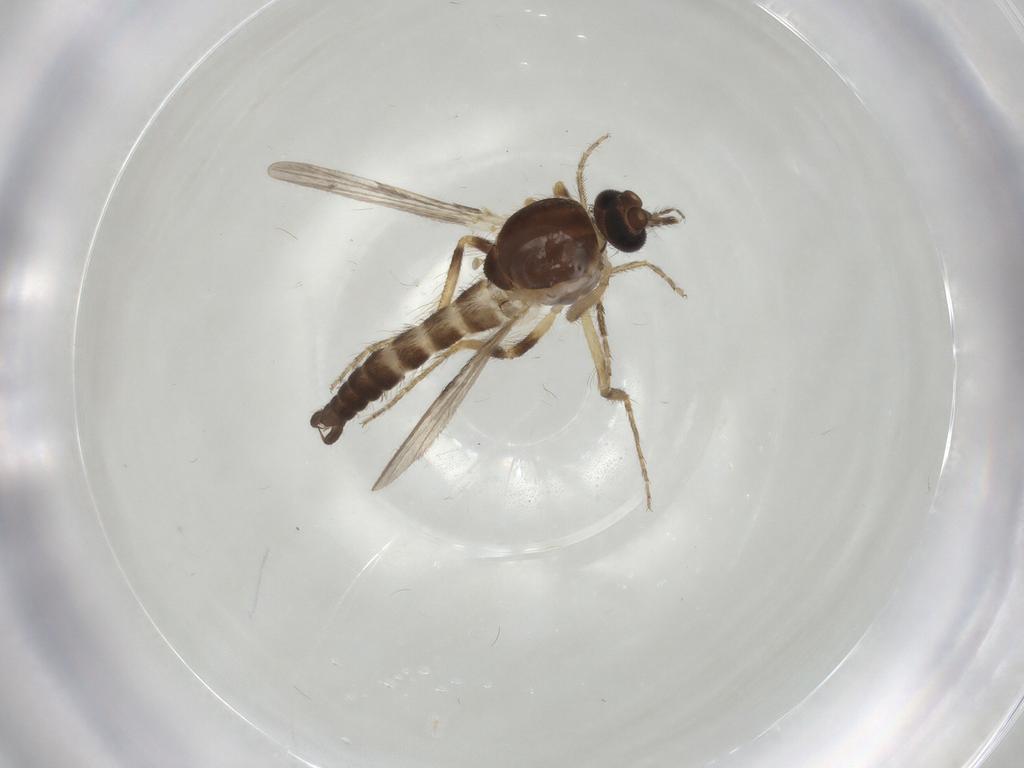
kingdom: Animalia
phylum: Arthropoda
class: Insecta
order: Diptera
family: Ceratopogonidae
